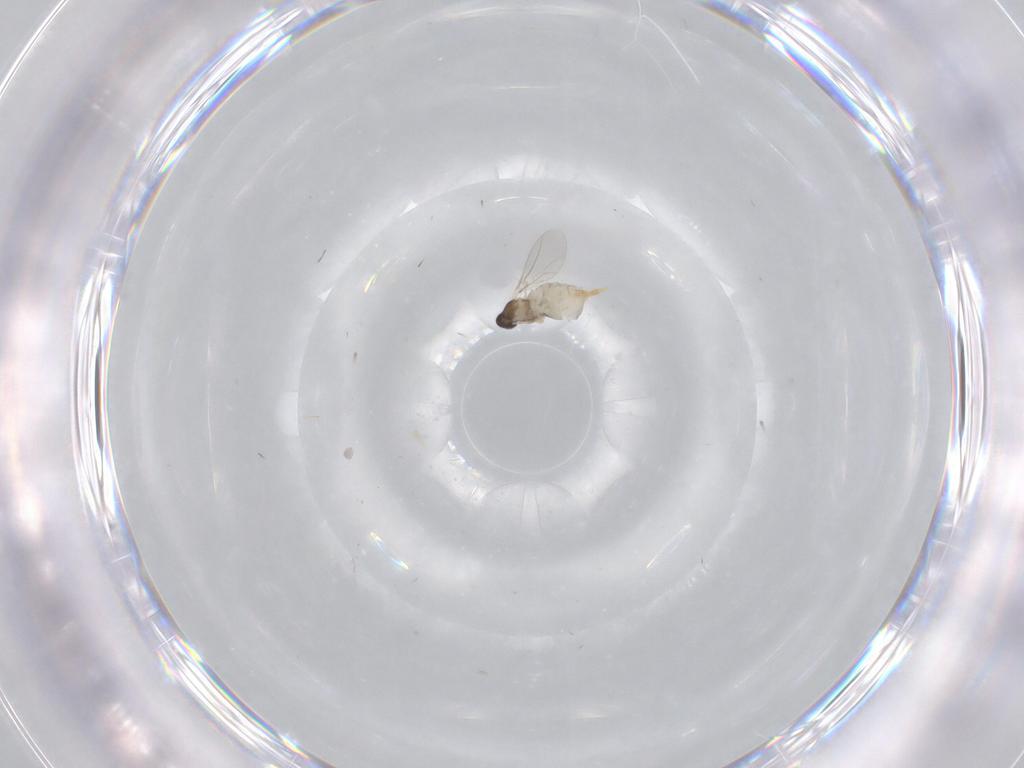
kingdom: Animalia
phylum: Arthropoda
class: Insecta
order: Diptera
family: Cecidomyiidae
